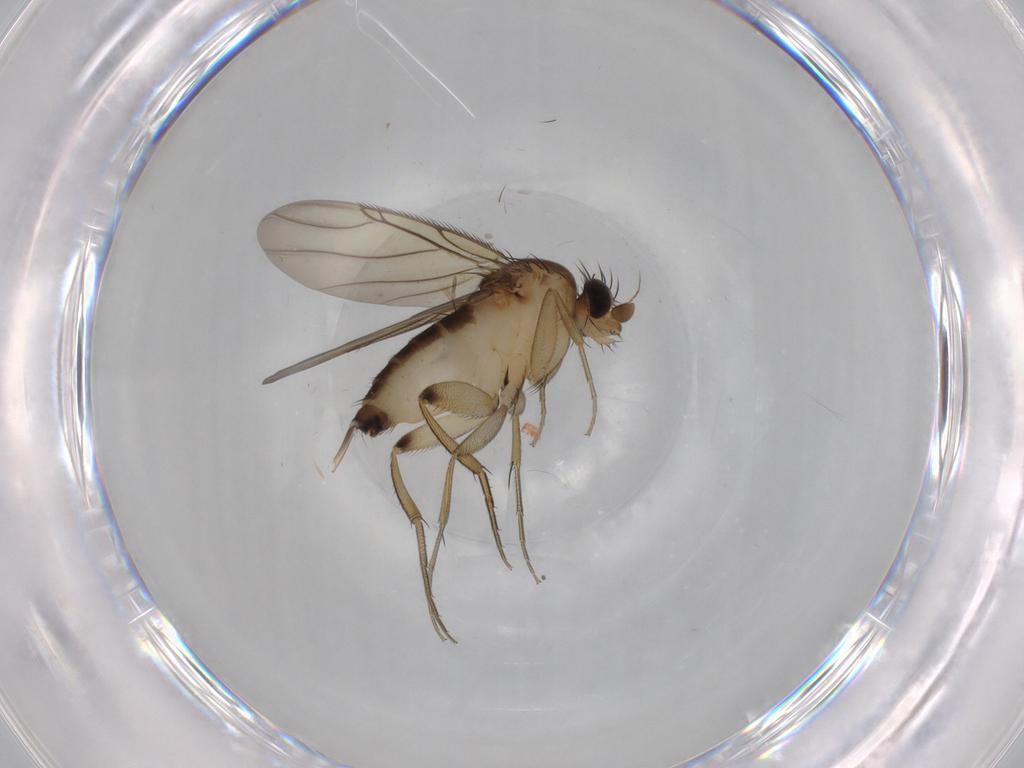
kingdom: Animalia
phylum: Arthropoda
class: Insecta
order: Diptera
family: Phoridae
